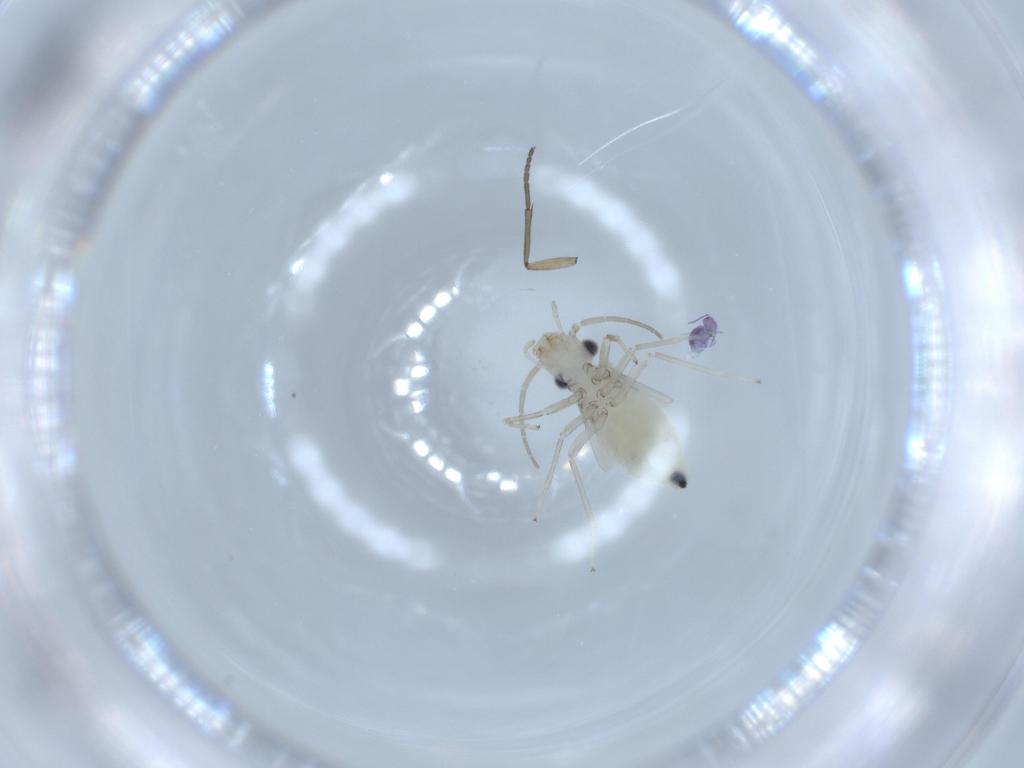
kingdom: Animalia
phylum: Arthropoda
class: Insecta
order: Psocodea
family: Caeciliusidae
